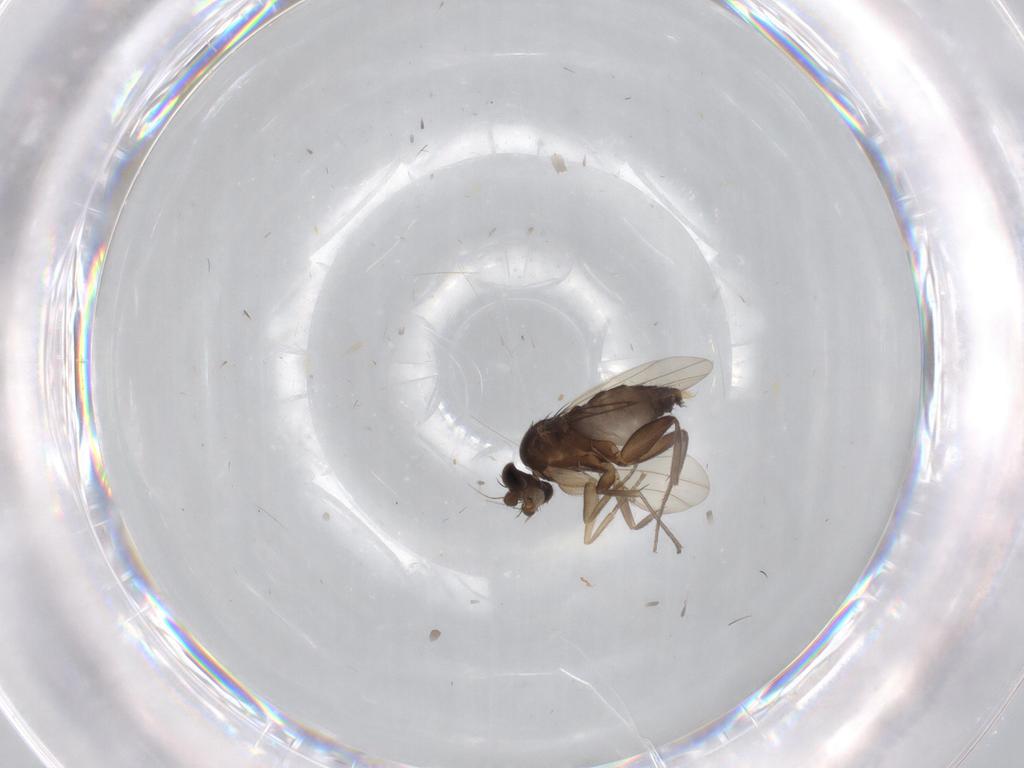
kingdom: Animalia
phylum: Arthropoda
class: Insecta
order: Diptera
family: Phoridae
